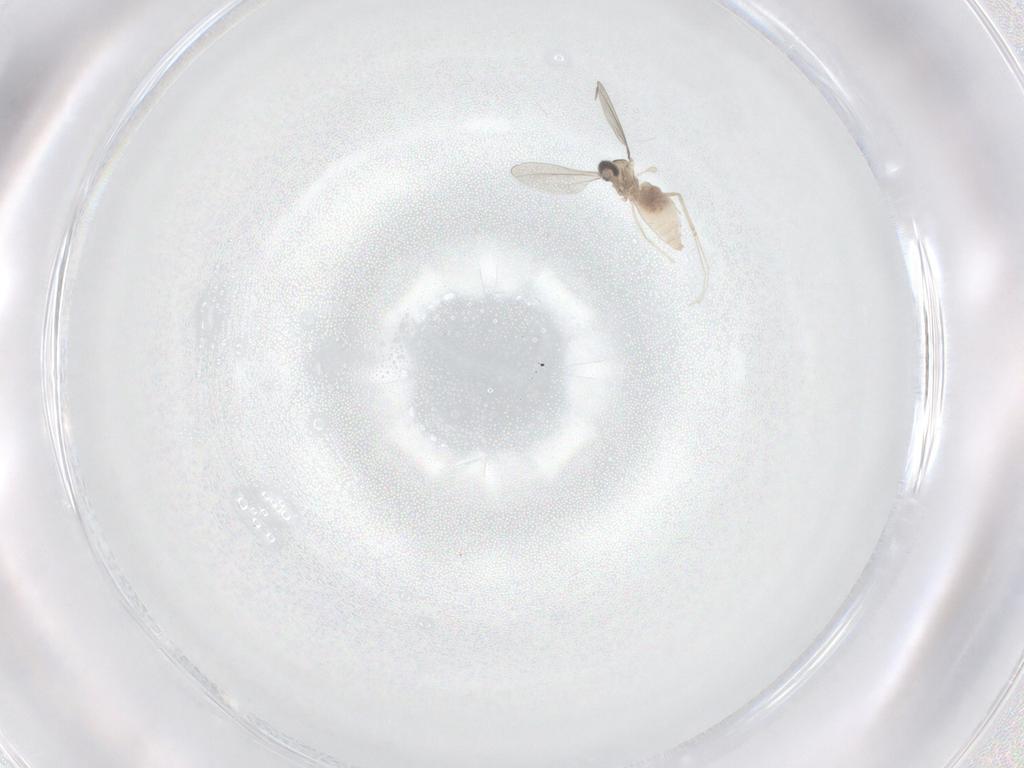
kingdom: Animalia
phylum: Arthropoda
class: Insecta
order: Diptera
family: Cecidomyiidae
